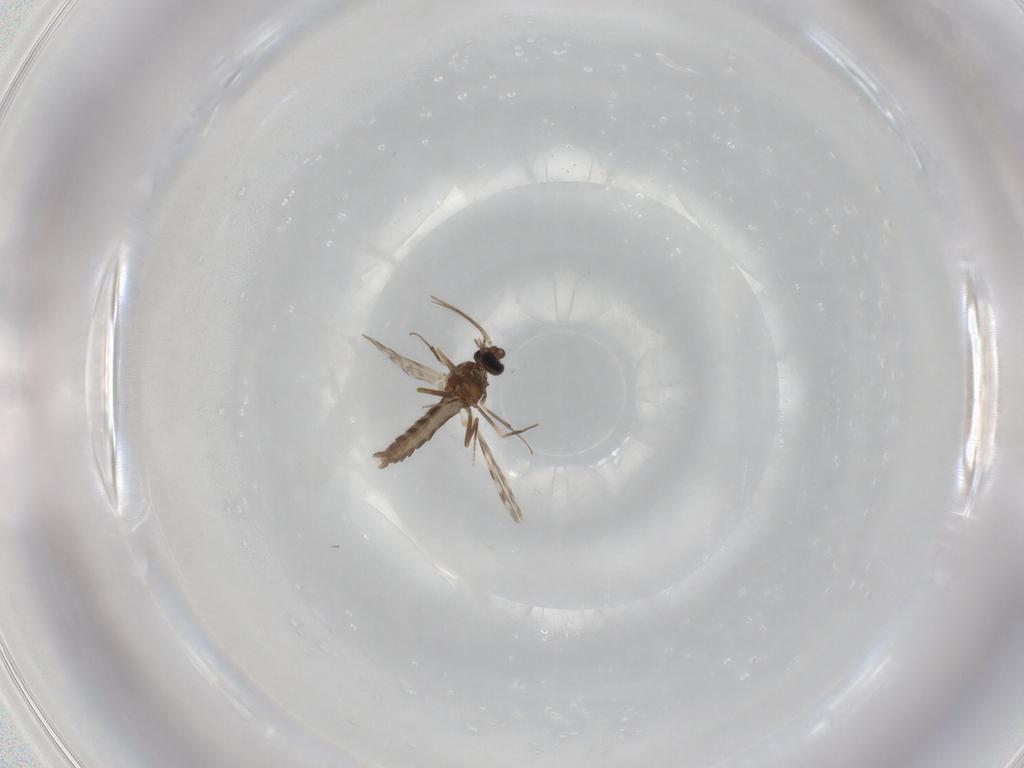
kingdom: Animalia
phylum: Arthropoda
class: Insecta
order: Diptera
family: Ceratopogonidae
